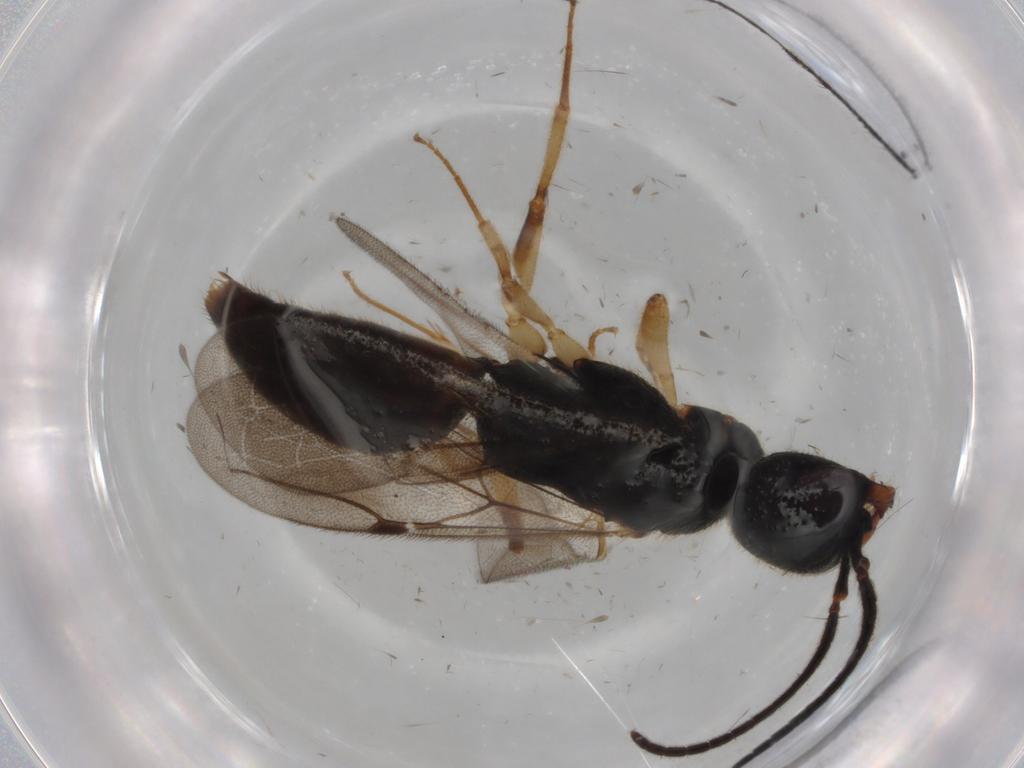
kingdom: Animalia
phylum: Arthropoda
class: Insecta
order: Hymenoptera
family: Bethylidae
